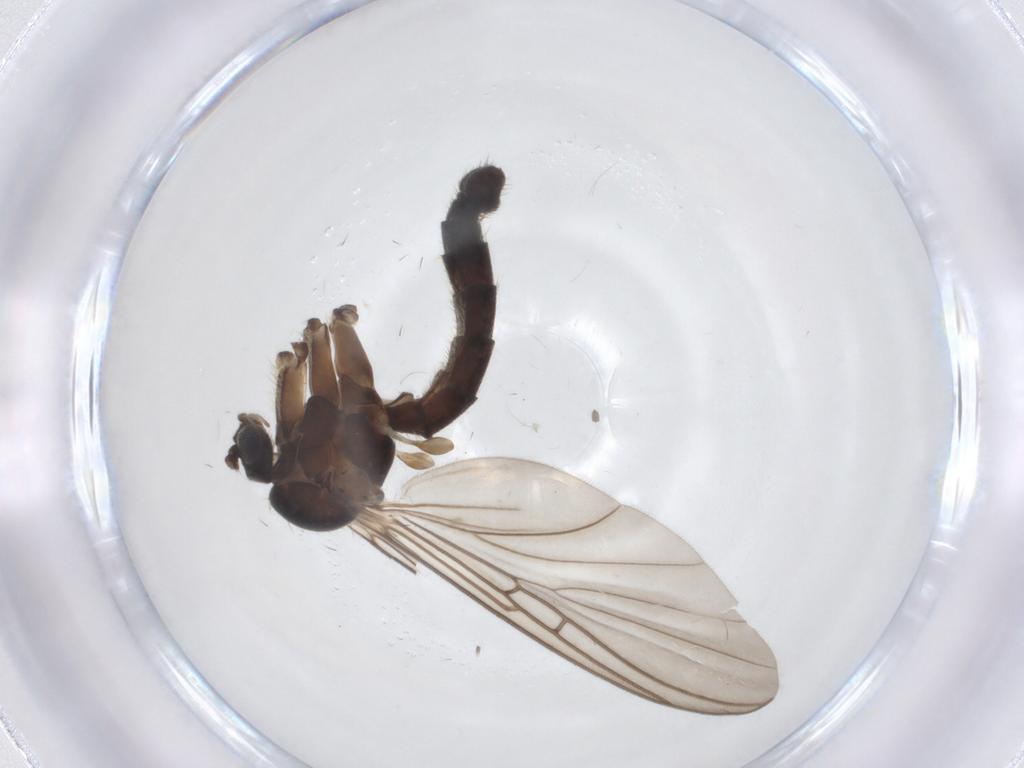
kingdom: Animalia
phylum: Arthropoda
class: Insecta
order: Diptera
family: Mycetophilidae
